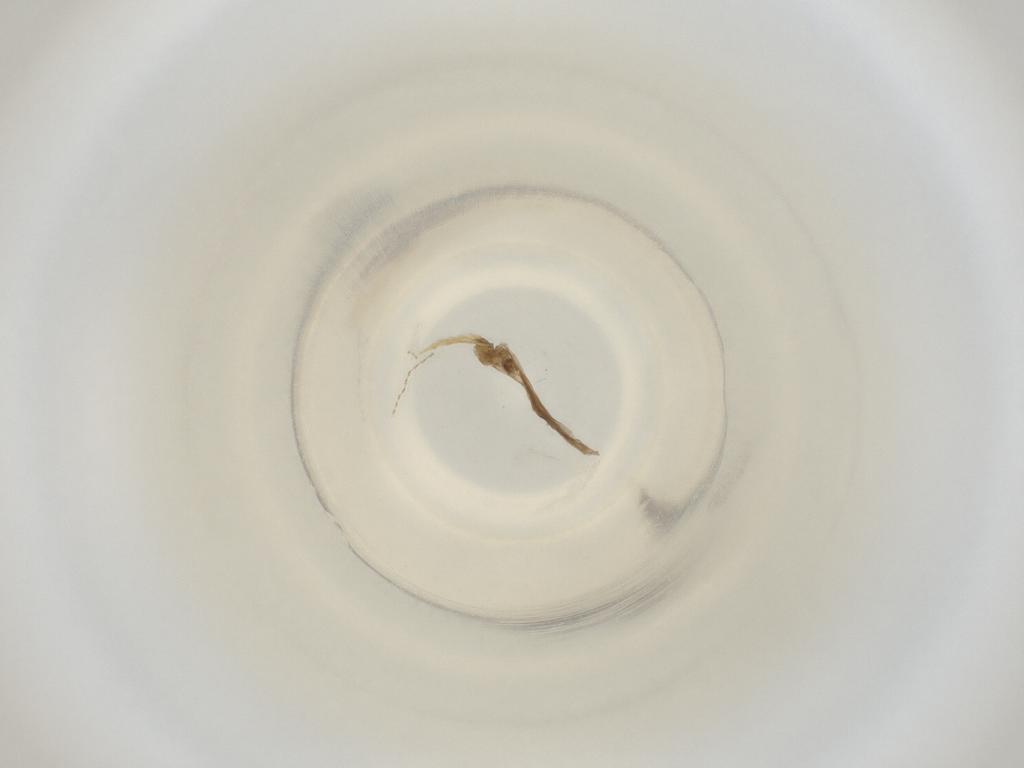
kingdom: Animalia
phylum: Arthropoda
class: Insecta
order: Diptera
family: Cecidomyiidae
